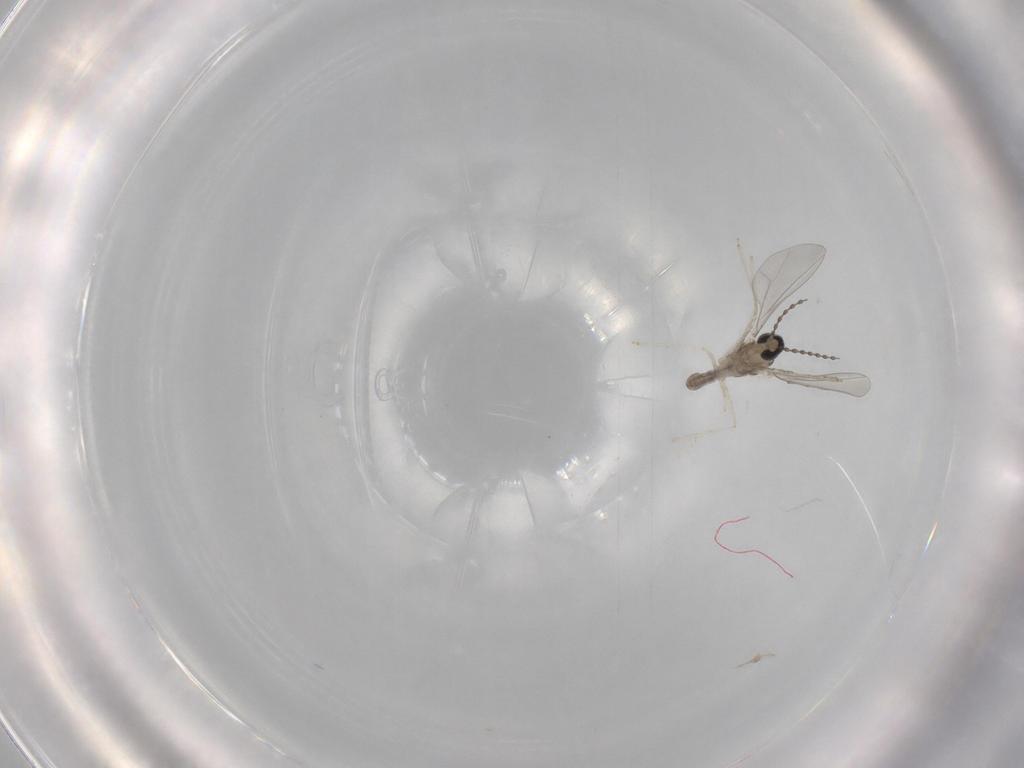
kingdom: Animalia
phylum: Arthropoda
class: Insecta
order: Diptera
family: Cecidomyiidae
